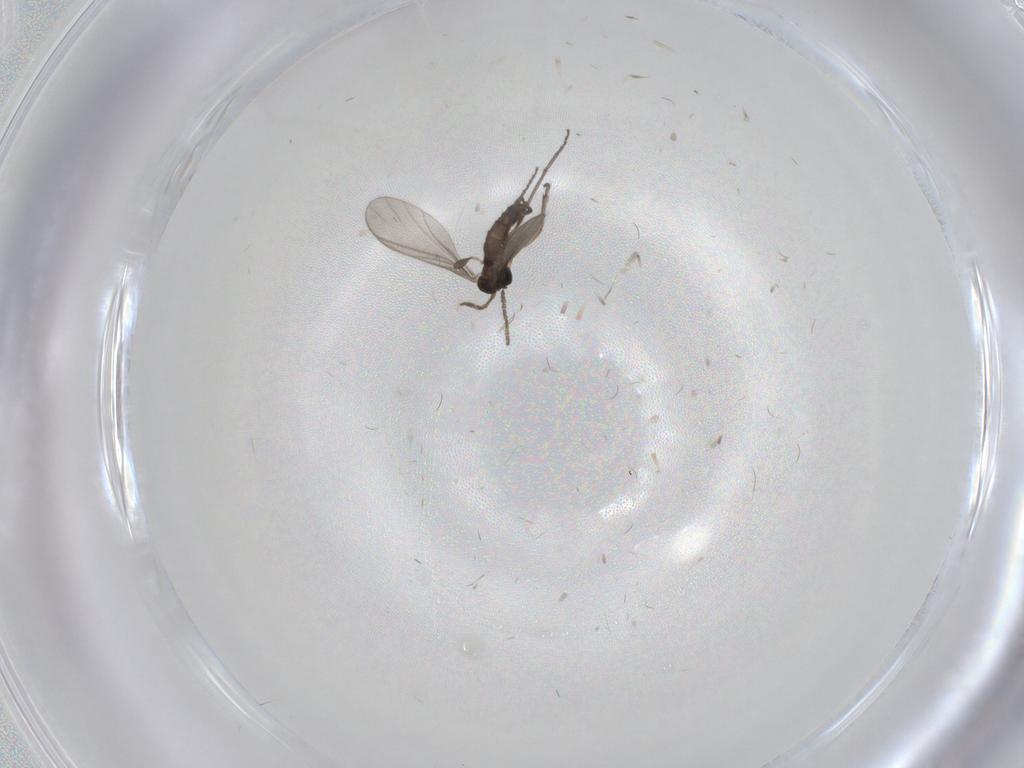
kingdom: Animalia
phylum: Arthropoda
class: Insecta
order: Diptera
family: Sciaridae
